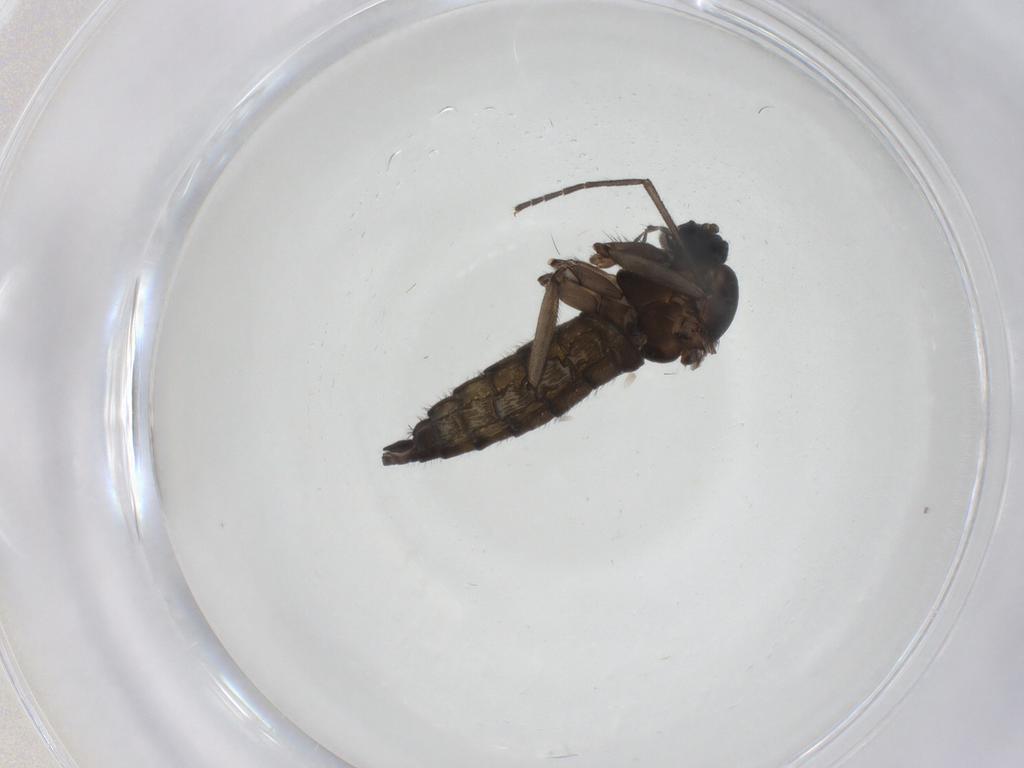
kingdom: Animalia
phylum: Arthropoda
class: Insecta
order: Diptera
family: Sciaridae
